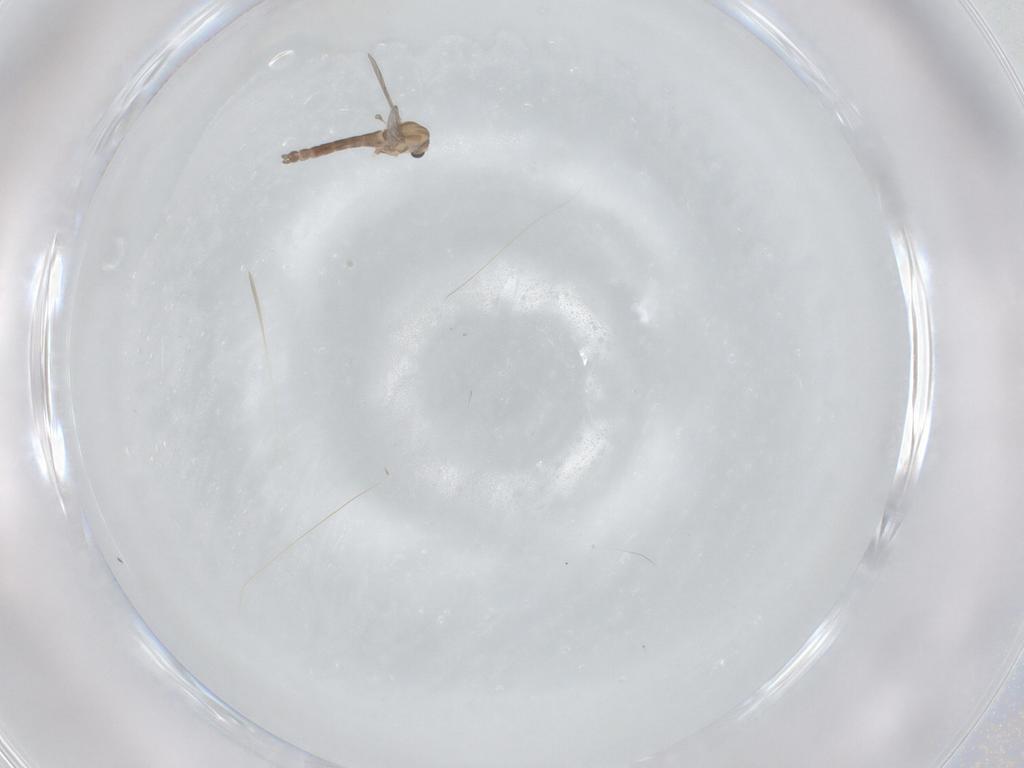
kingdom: Animalia
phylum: Arthropoda
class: Insecta
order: Diptera
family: Chironomidae
